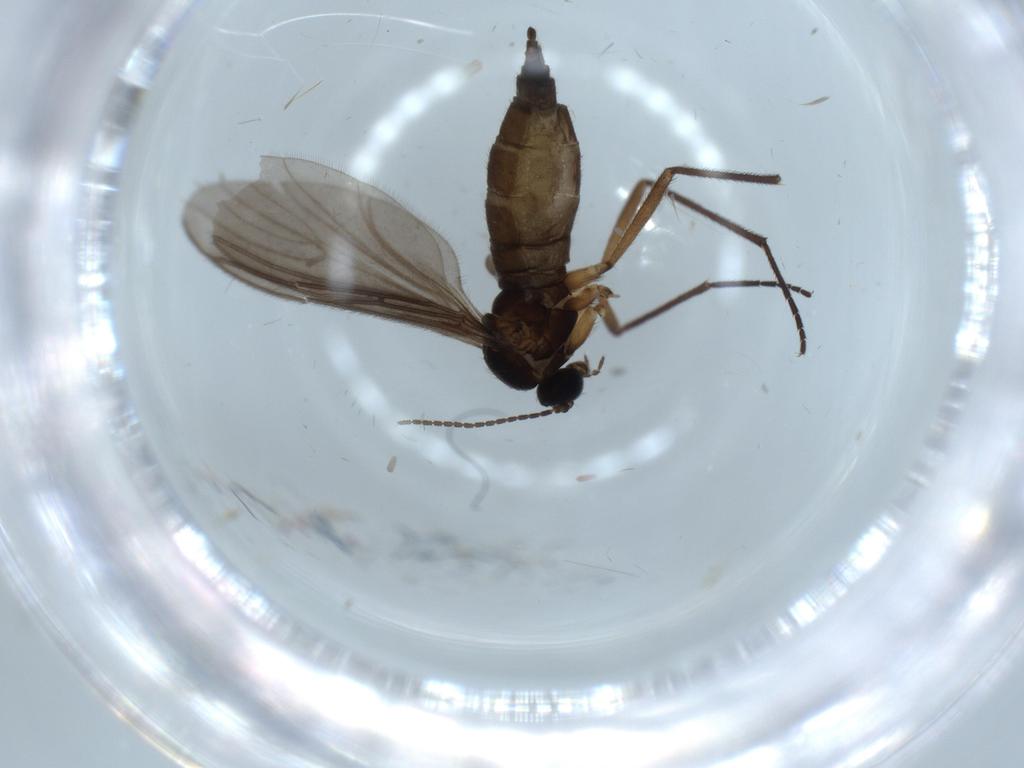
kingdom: Animalia
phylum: Arthropoda
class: Insecta
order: Diptera
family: Sciaridae
